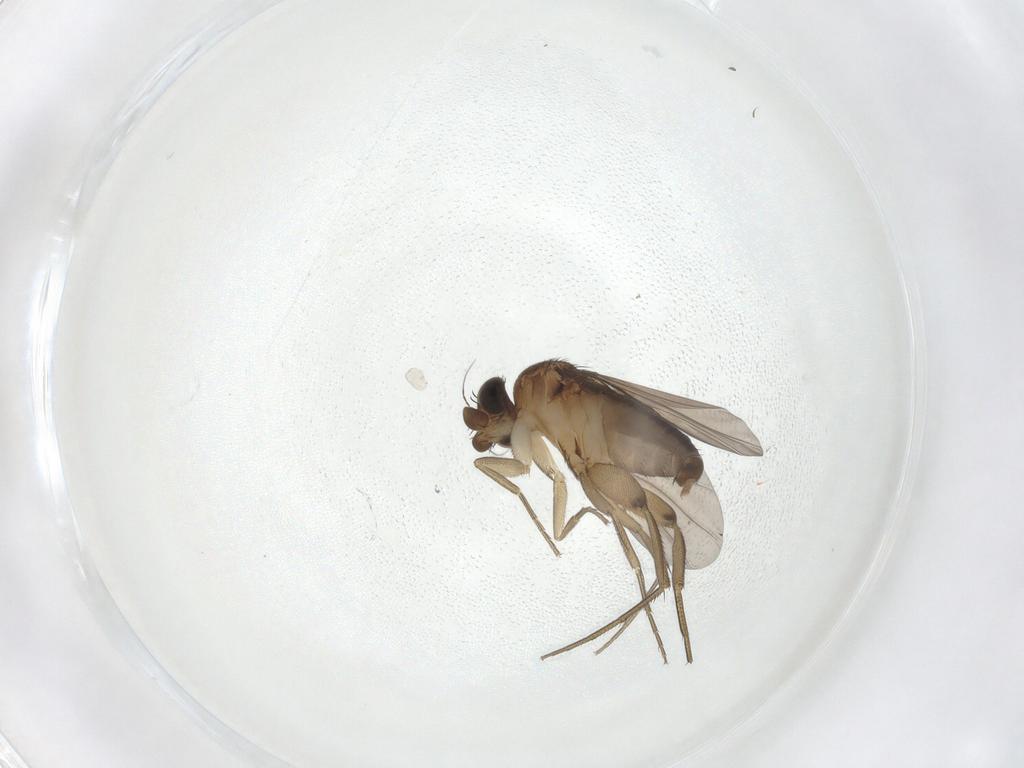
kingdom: Animalia
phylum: Arthropoda
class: Insecta
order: Diptera
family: Phoridae
